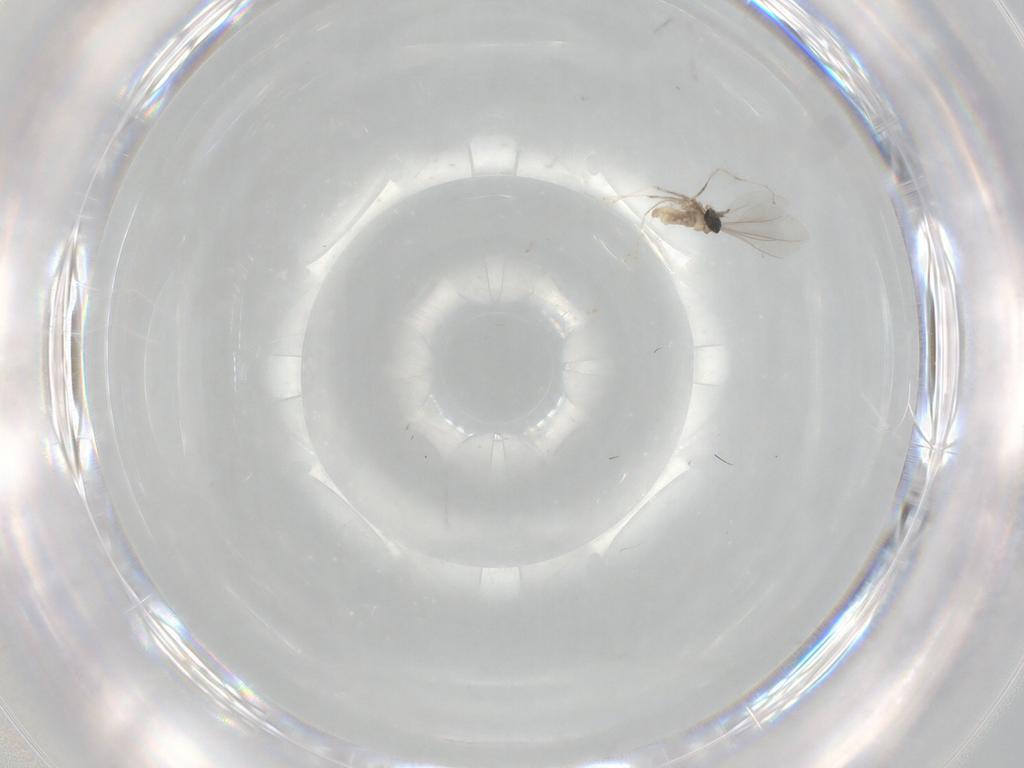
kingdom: Animalia
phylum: Arthropoda
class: Insecta
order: Diptera
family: Cecidomyiidae
